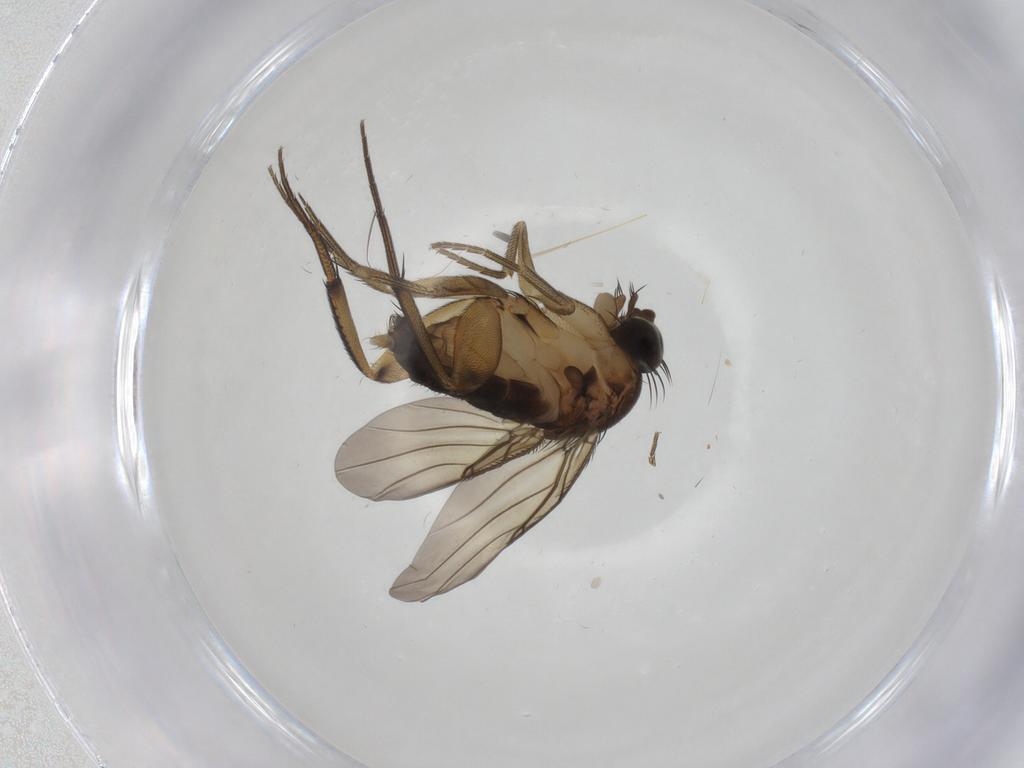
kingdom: Animalia
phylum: Arthropoda
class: Insecta
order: Diptera
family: Phoridae
